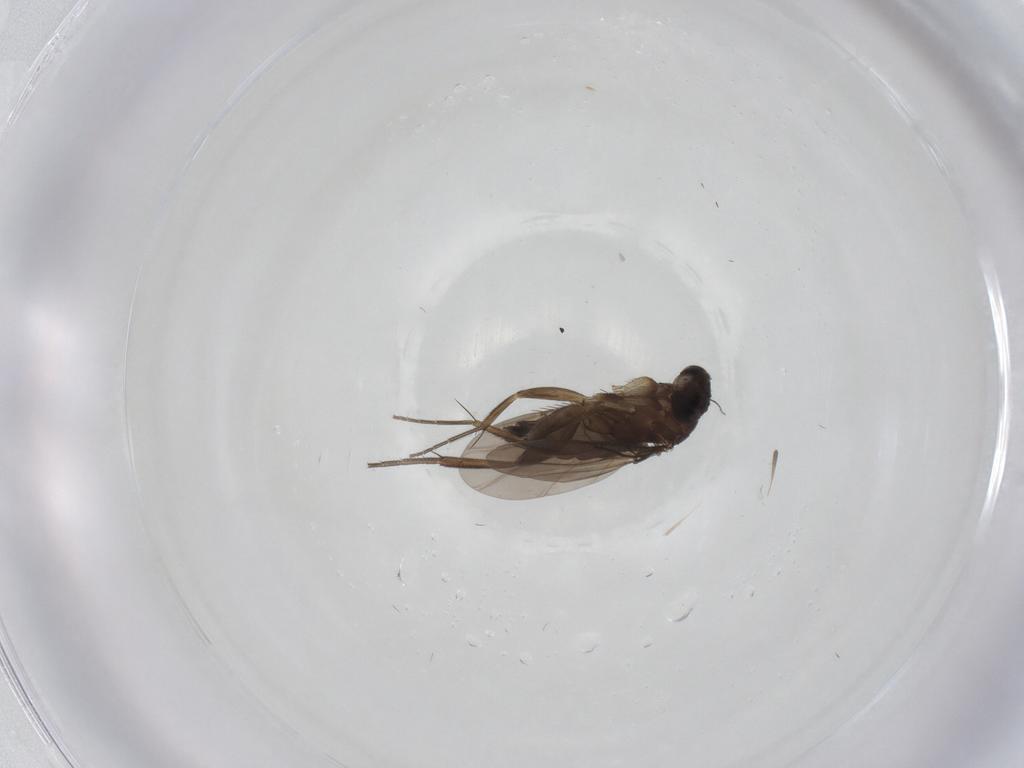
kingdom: Animalia
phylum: Arthropoda
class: Insecta
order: Diptera
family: Phoridae
